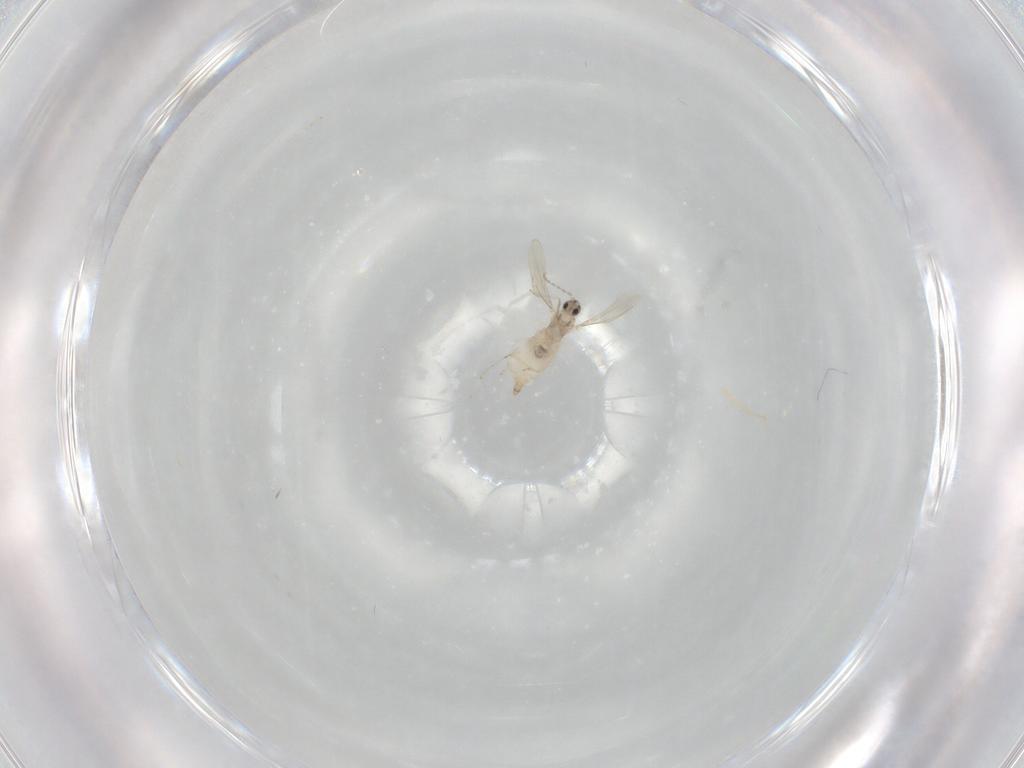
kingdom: Animalia
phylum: Arthropoda
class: Insecta
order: Diptera
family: Cecidomyiidae
